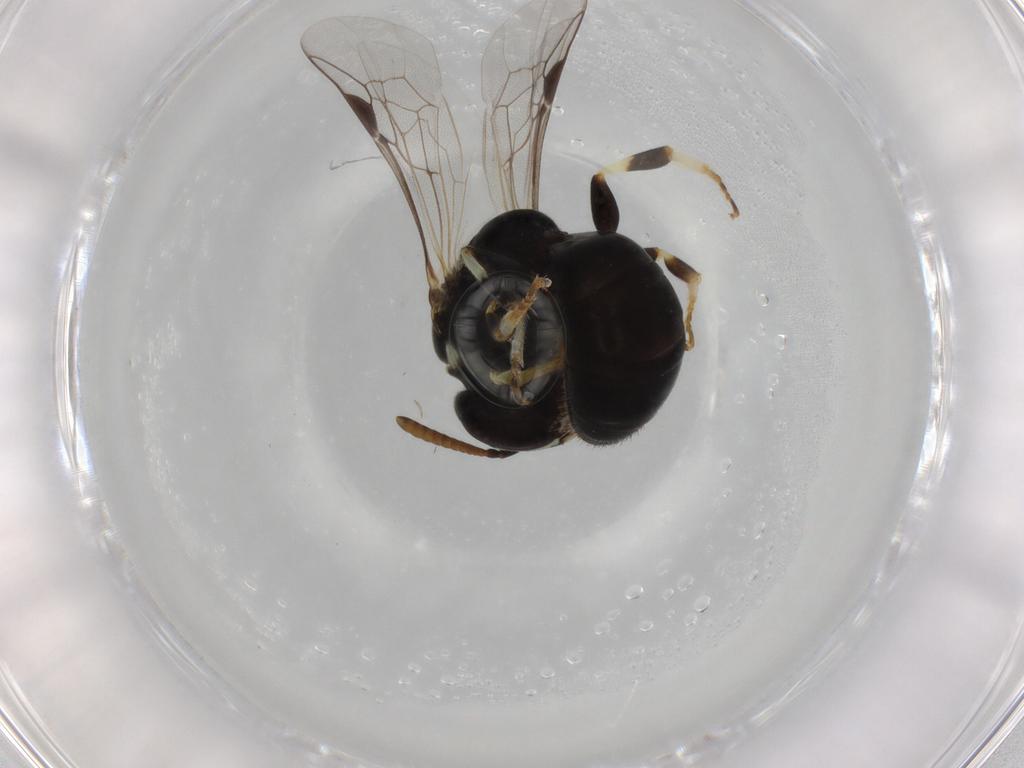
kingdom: Animalia
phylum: Arthropoda
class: Insecta
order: Hymenoptera
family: Colletidae
